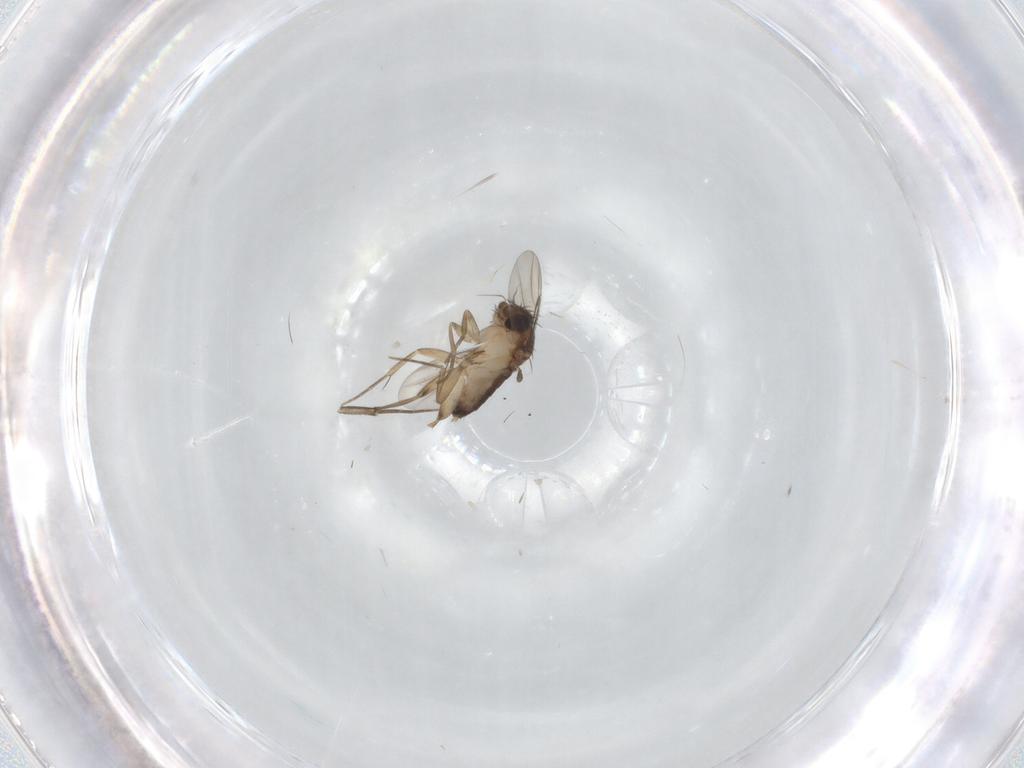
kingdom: Animalia
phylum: Arthropoda
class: Insecta
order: Diptera
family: Phoridae
